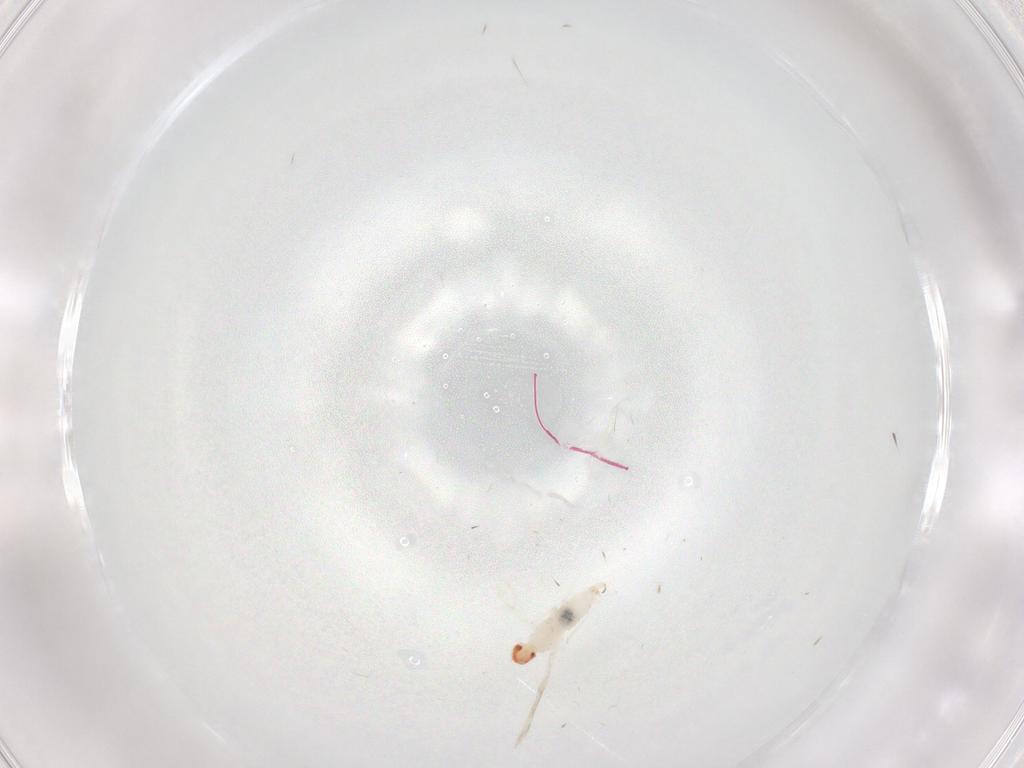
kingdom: Animalia
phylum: Arthropoda
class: Insecta
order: Diptera
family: Cecidomyiidae
